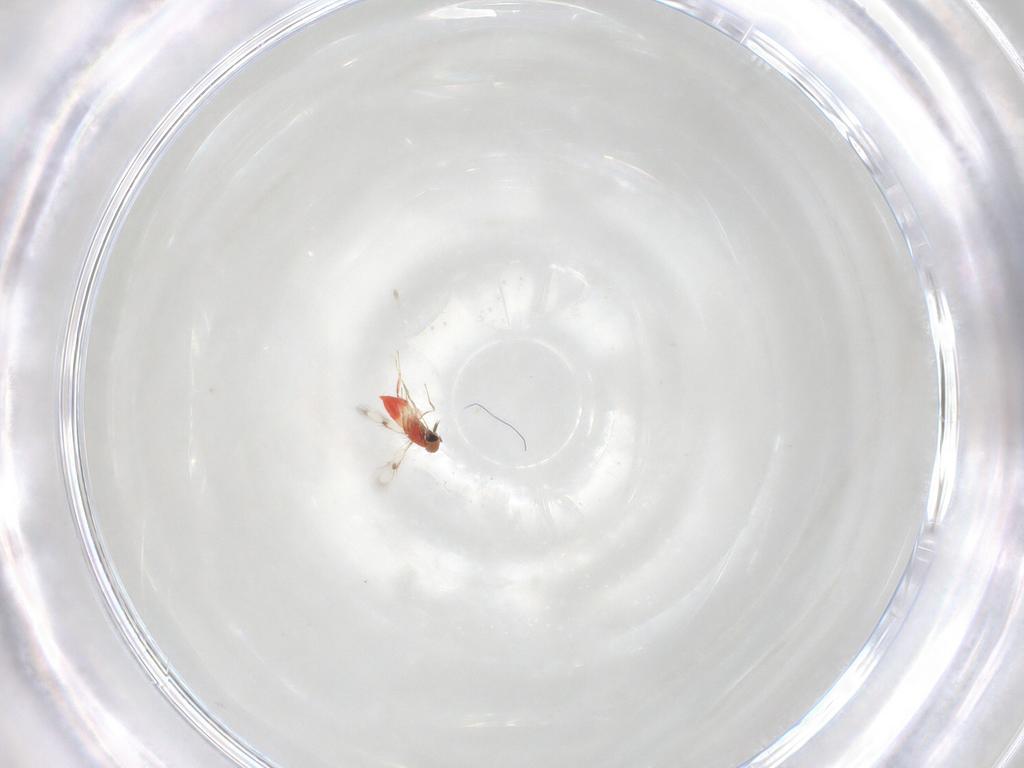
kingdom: Animalia
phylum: Arthropoda
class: Insecta
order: Hymenoptera
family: Trichogrammatidae
